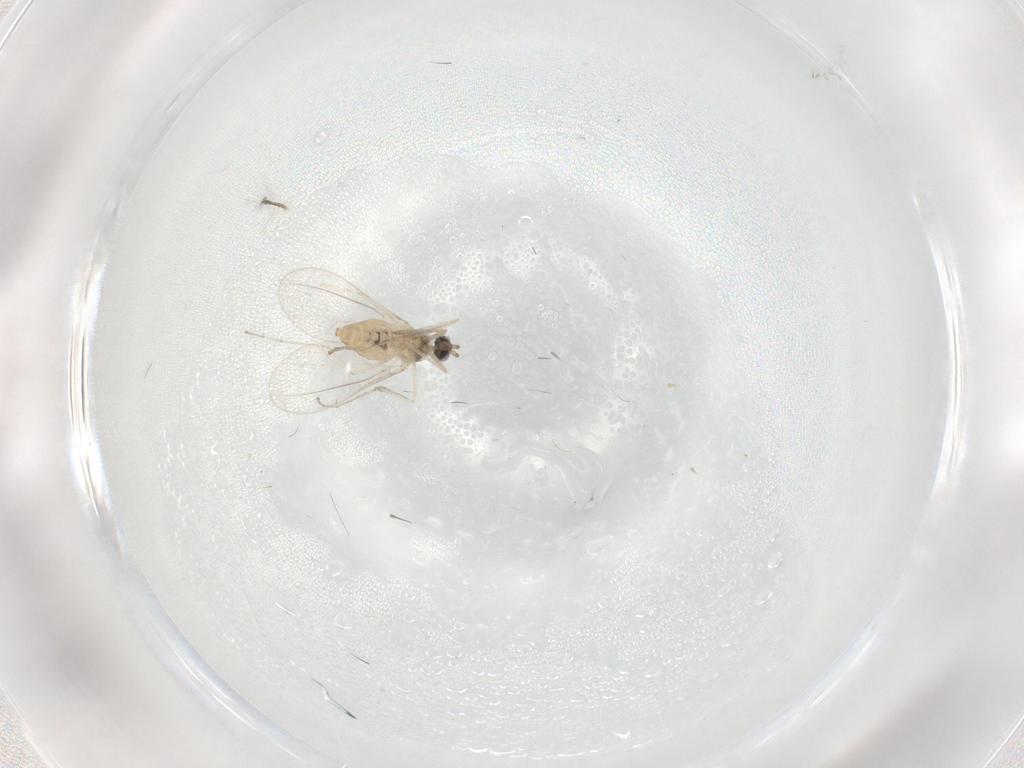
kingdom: Animalia
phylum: Arthropoda
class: Insecta
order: Diptera
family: Cecidomyiidae
